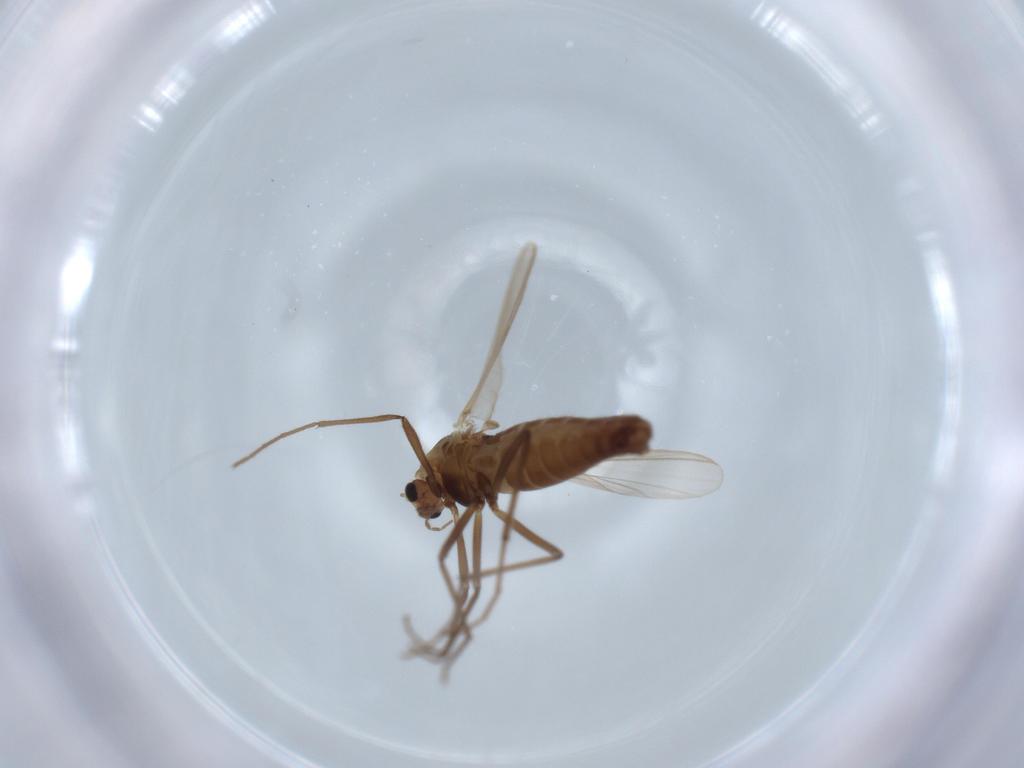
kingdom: Animalia
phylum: Arthropoda
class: Insecta
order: Diptera
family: Chironomidae
